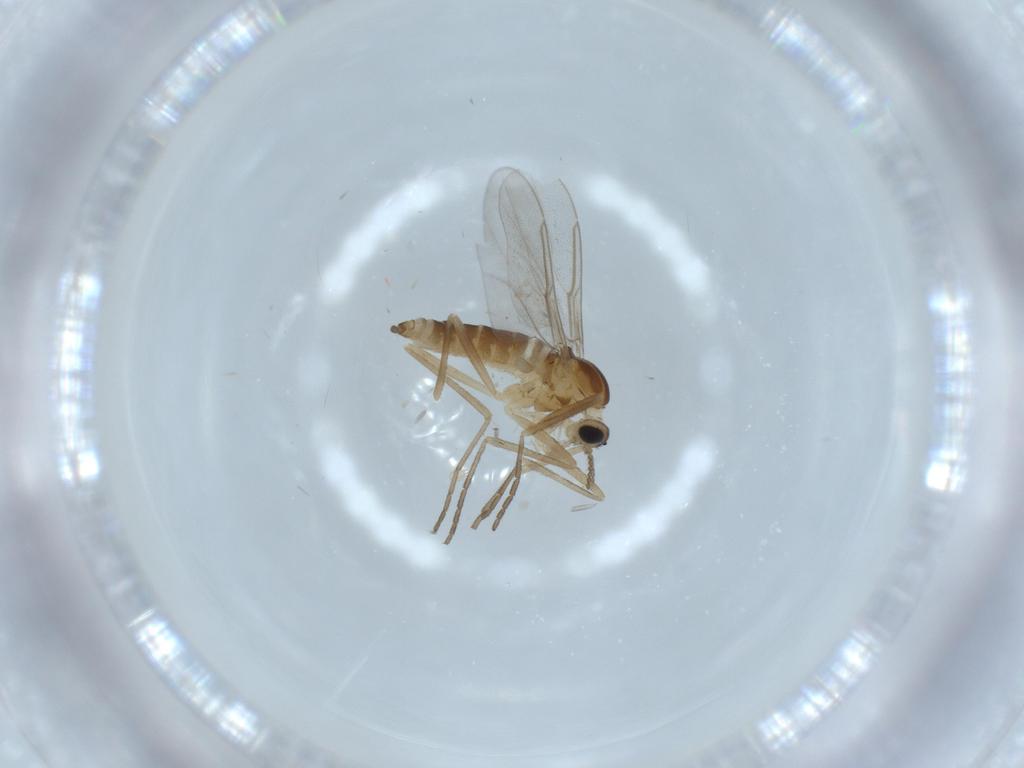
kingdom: Animalia
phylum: Arthropoda
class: Insecta
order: Diptera
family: Cecidomyiidae
